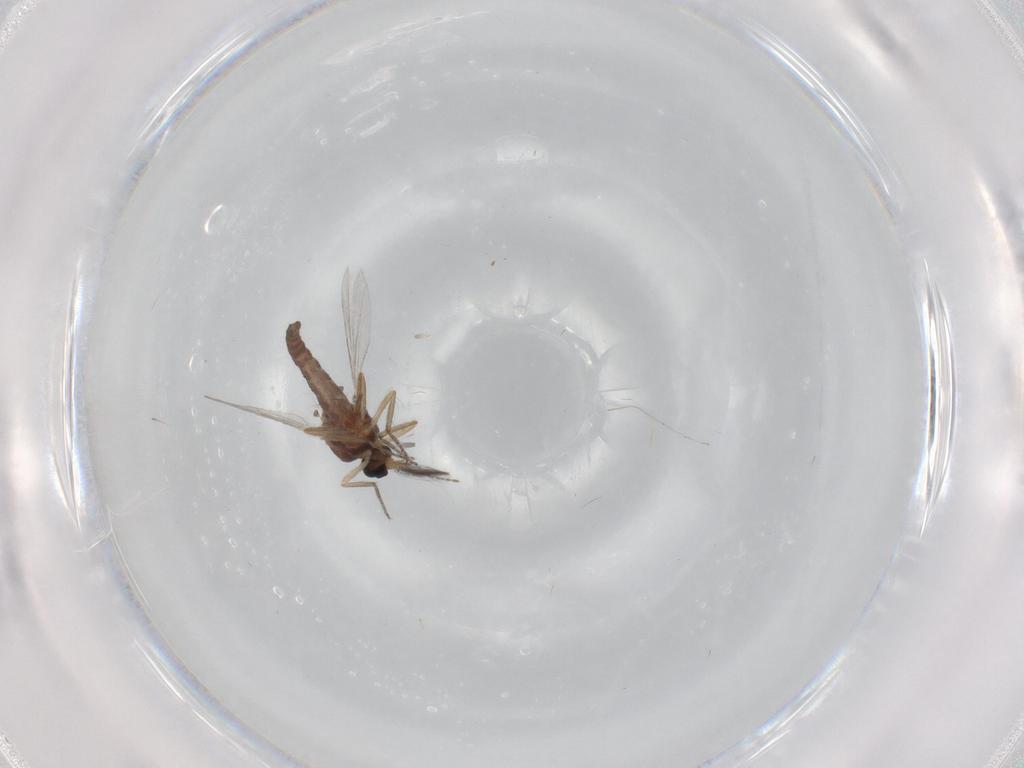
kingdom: Animalia
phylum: Arthropoda
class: Insecta
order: Diptera
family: Ceratopogonidae
